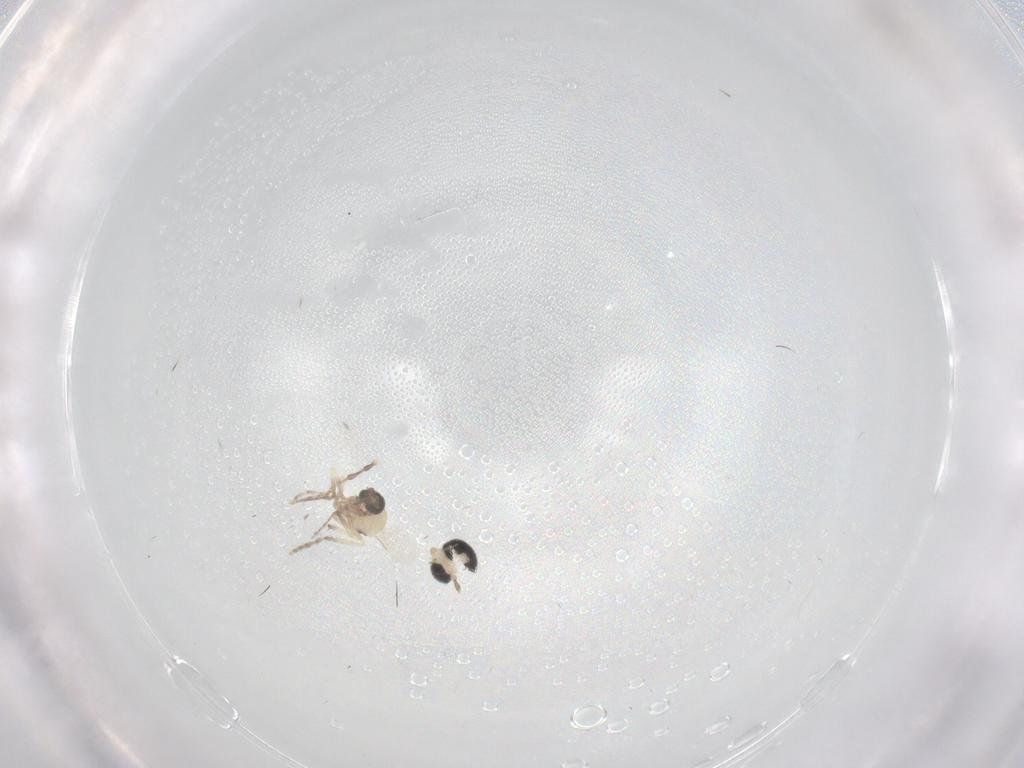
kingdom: Animalia
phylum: Arthropoda
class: Insecta
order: Diptera
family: Ceratopogonidae
